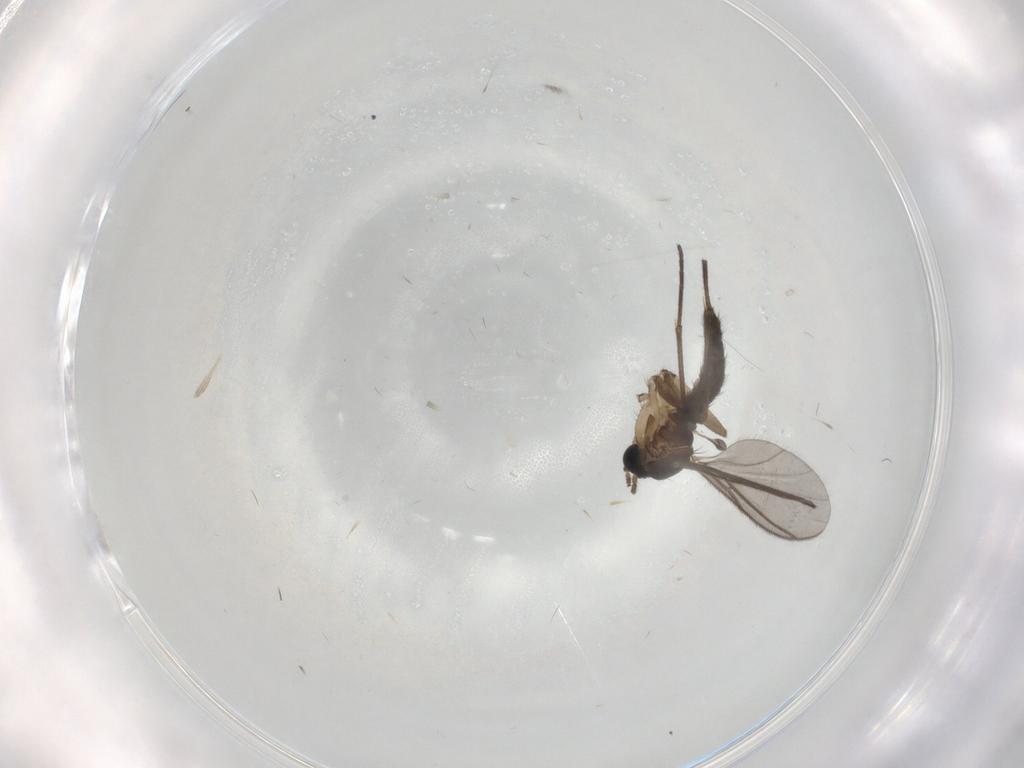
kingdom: Animalia
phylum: Arthropoda
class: Insecta
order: Diptera
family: Sciaridae
